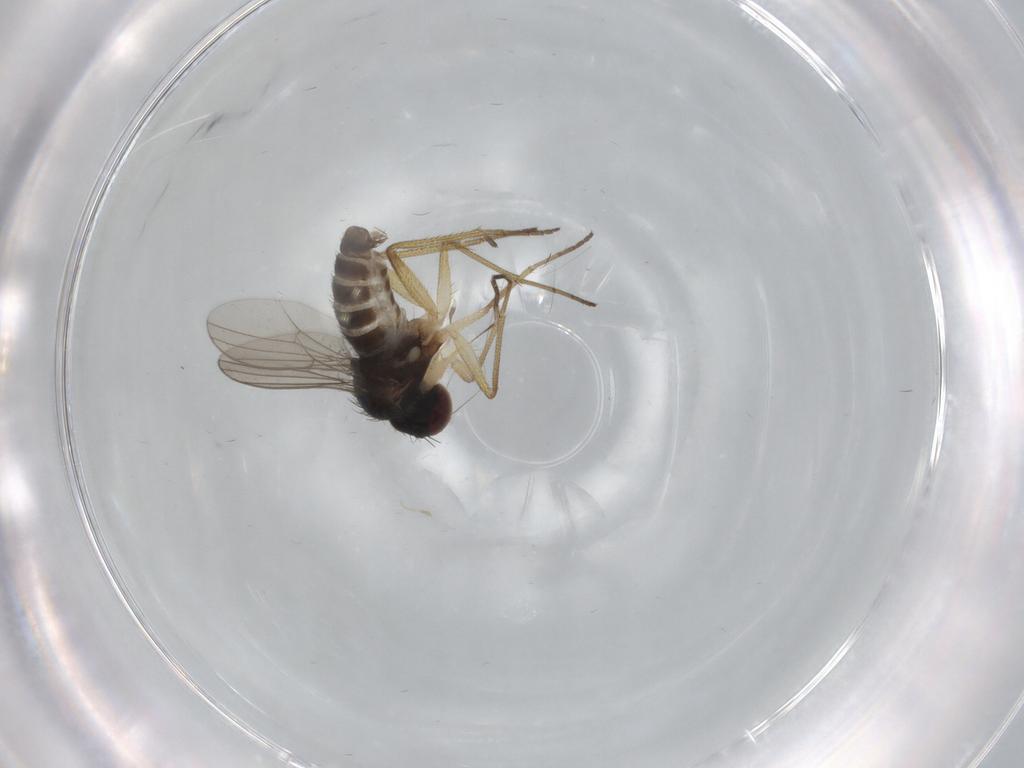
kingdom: Animalia
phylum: Arthropoda
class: Insecta
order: Diptera
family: Dolichopodidae
